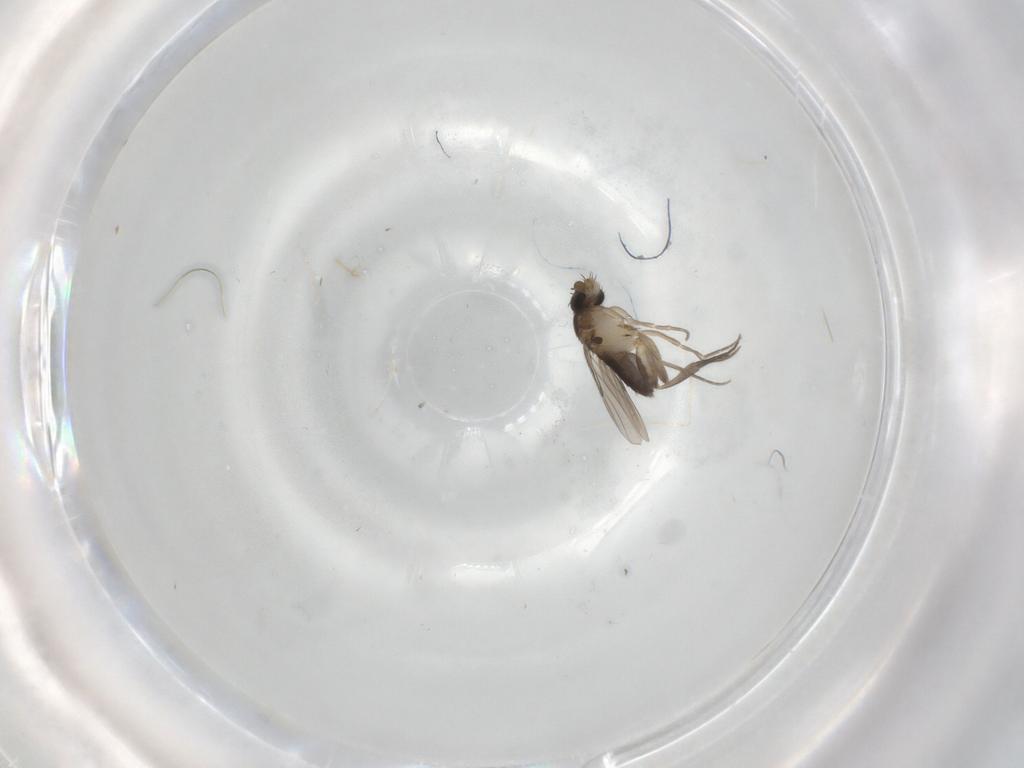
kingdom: Animalia
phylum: Arthropoda
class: Insecta
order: Diptera
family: Phoridae
